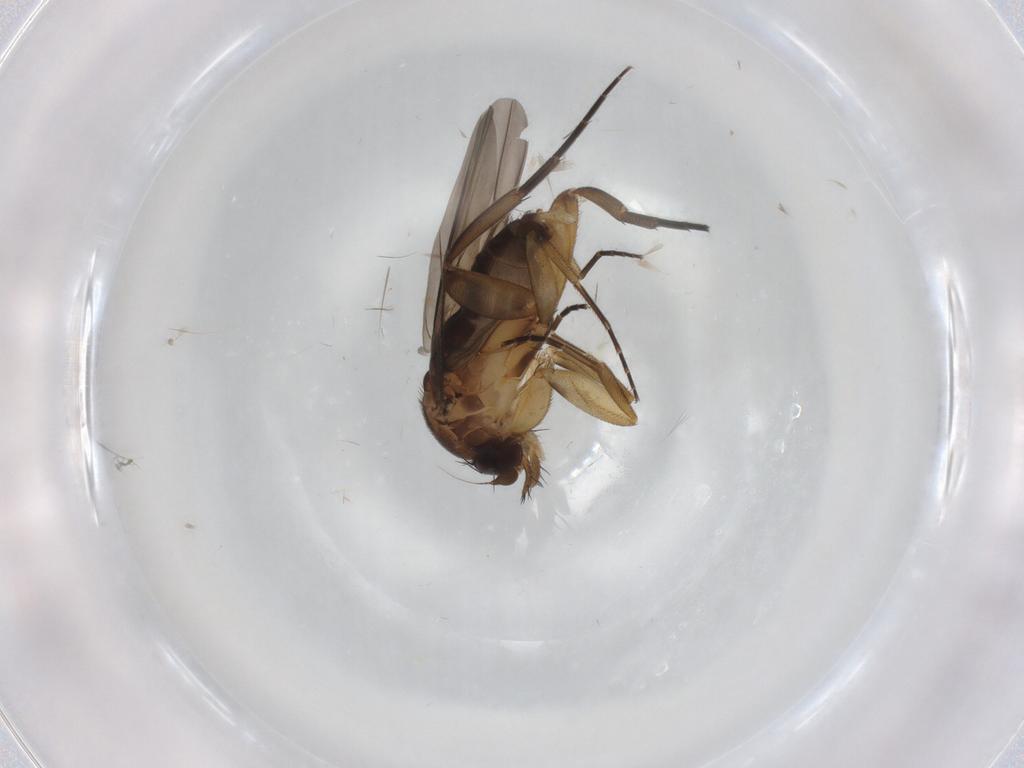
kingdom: Animalia
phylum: Arthropoda
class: Insecta
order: Diptera
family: Phoridae
